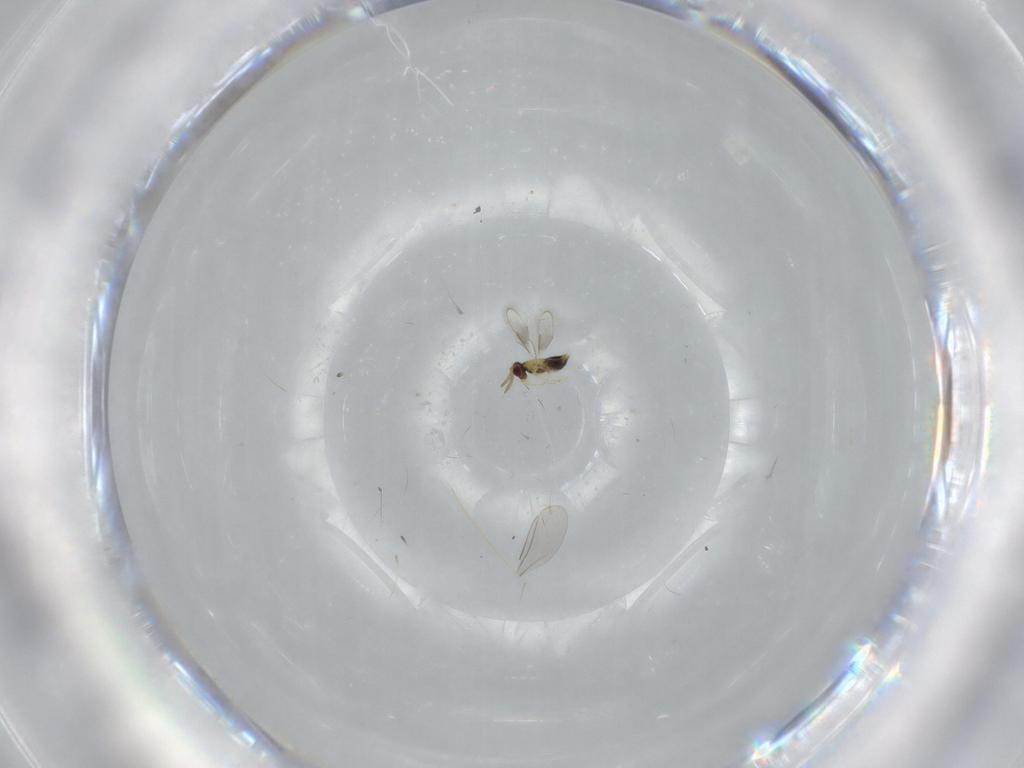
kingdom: Animalia
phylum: Arthropoda
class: Insecta
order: Hymenoptera
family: Aphelinidae
